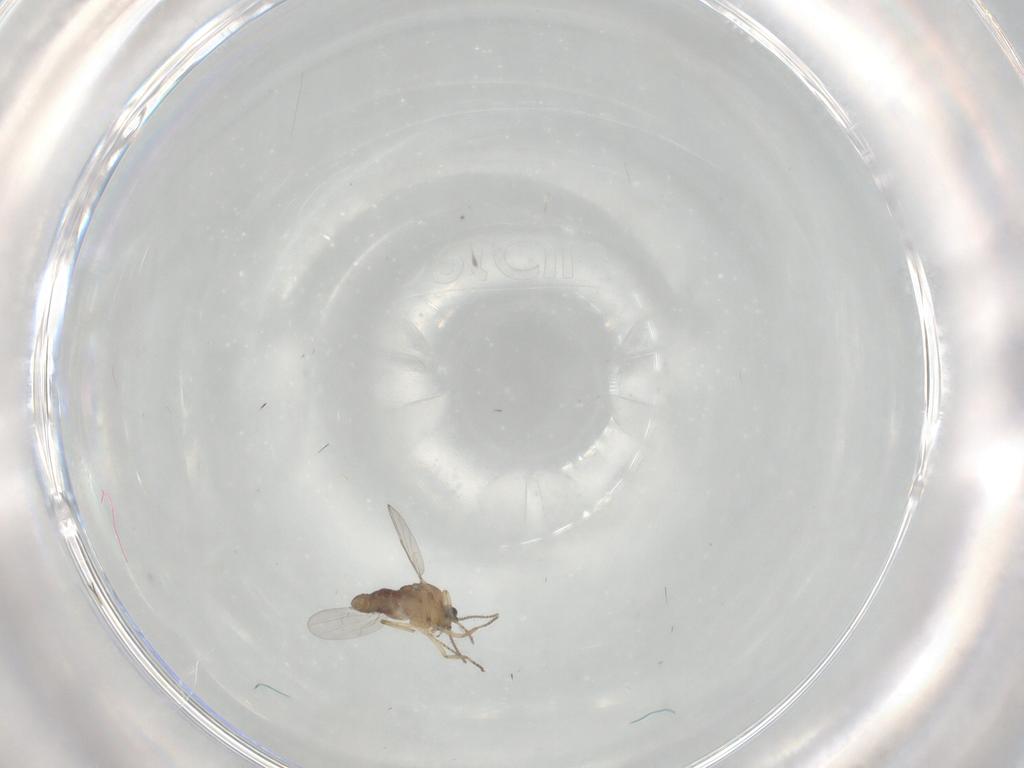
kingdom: Animalia
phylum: Arthropoda
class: Insecta
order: Diptera
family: Ceratopogonidae
